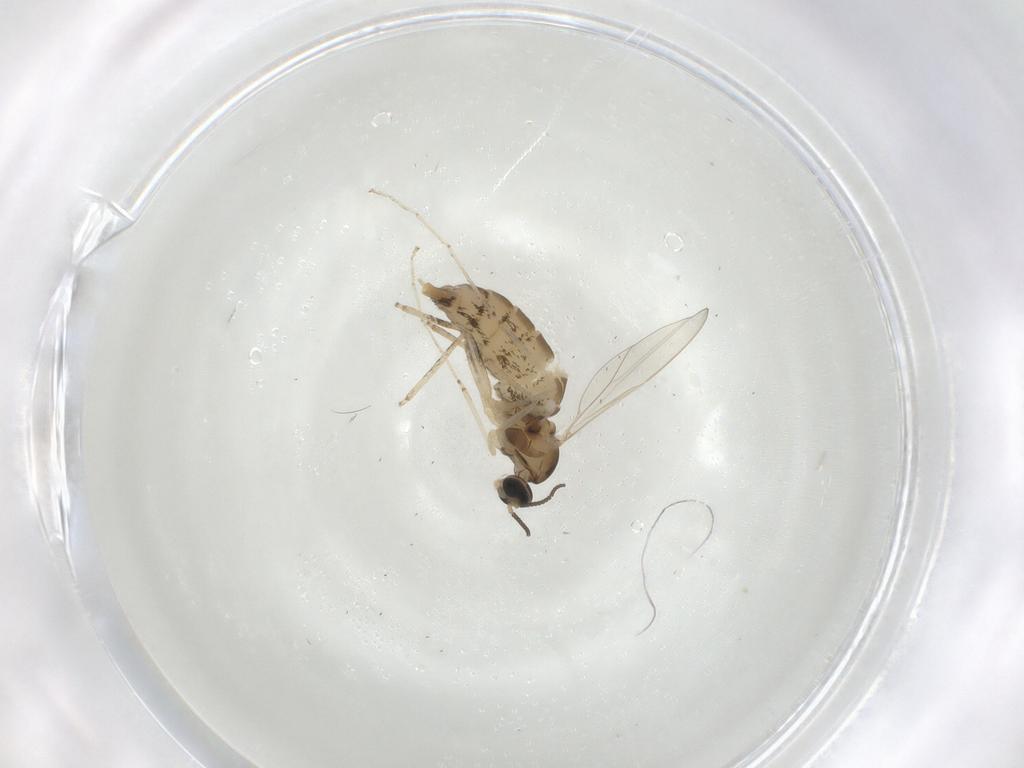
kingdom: Animalia
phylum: Arthropoda
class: Insecta
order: Diptera
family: Cecidomyiidae
